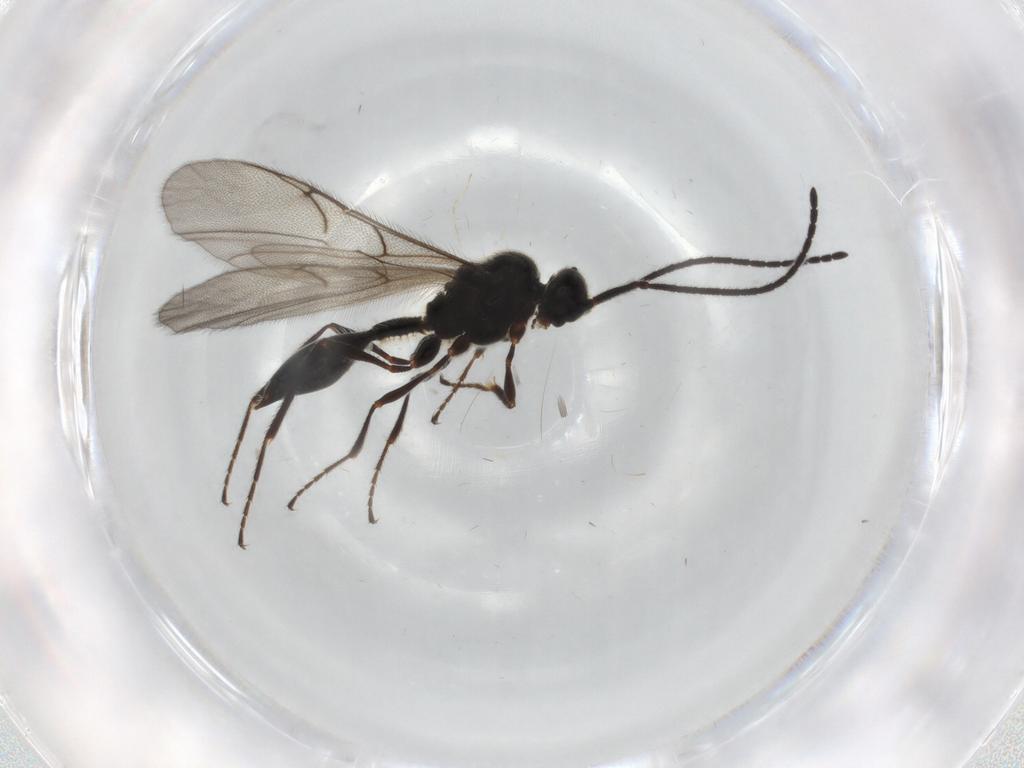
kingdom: Animalia
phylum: Arthropoda
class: Insecta
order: Hymenoptera
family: Diapriidae
